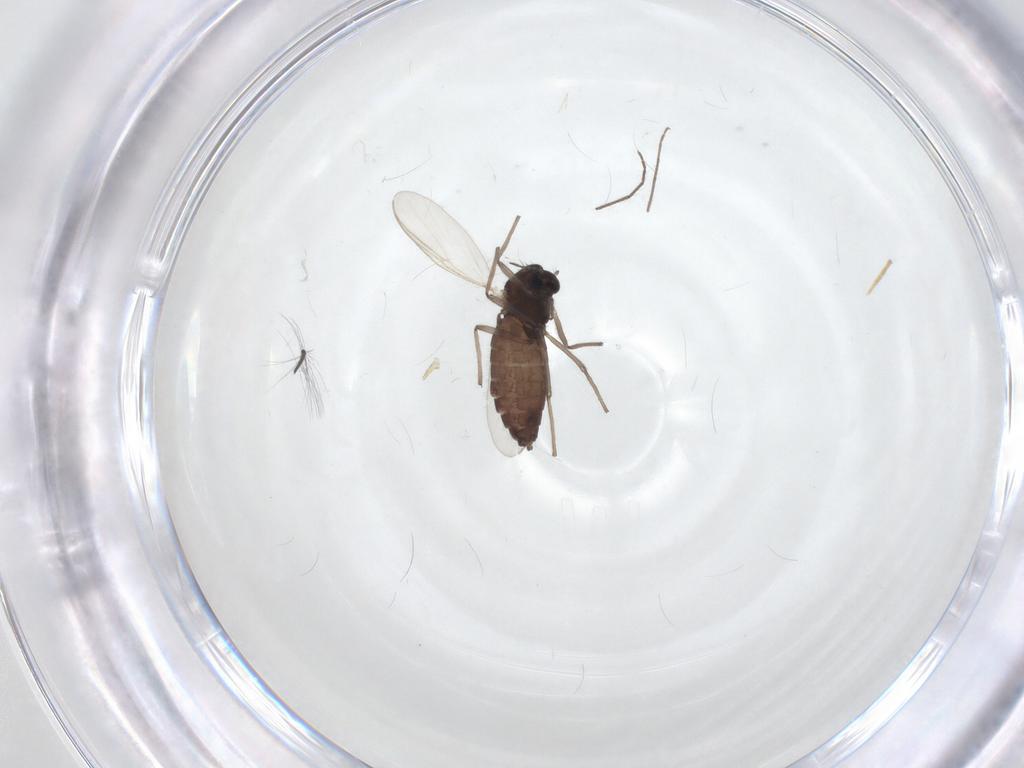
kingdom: Animalia
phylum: Arthropoda
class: Insecta
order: Diptera
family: Chironomidae
